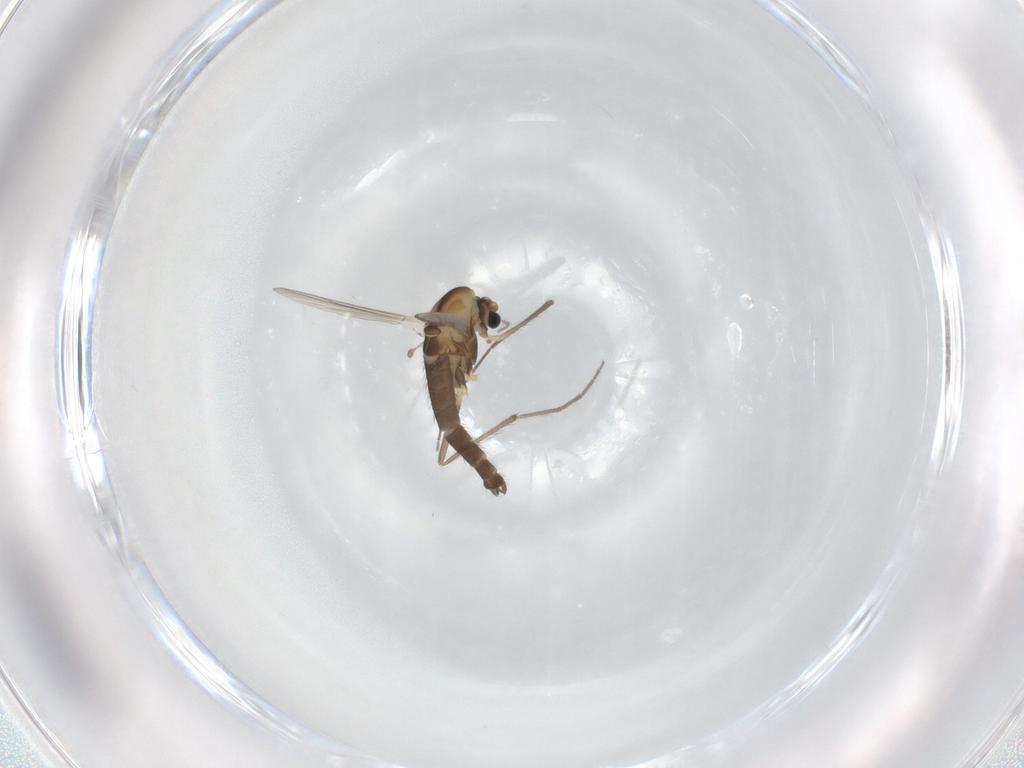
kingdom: Animalia
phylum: Arthropoda
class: Insecta
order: Diptera
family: Chironomidae
